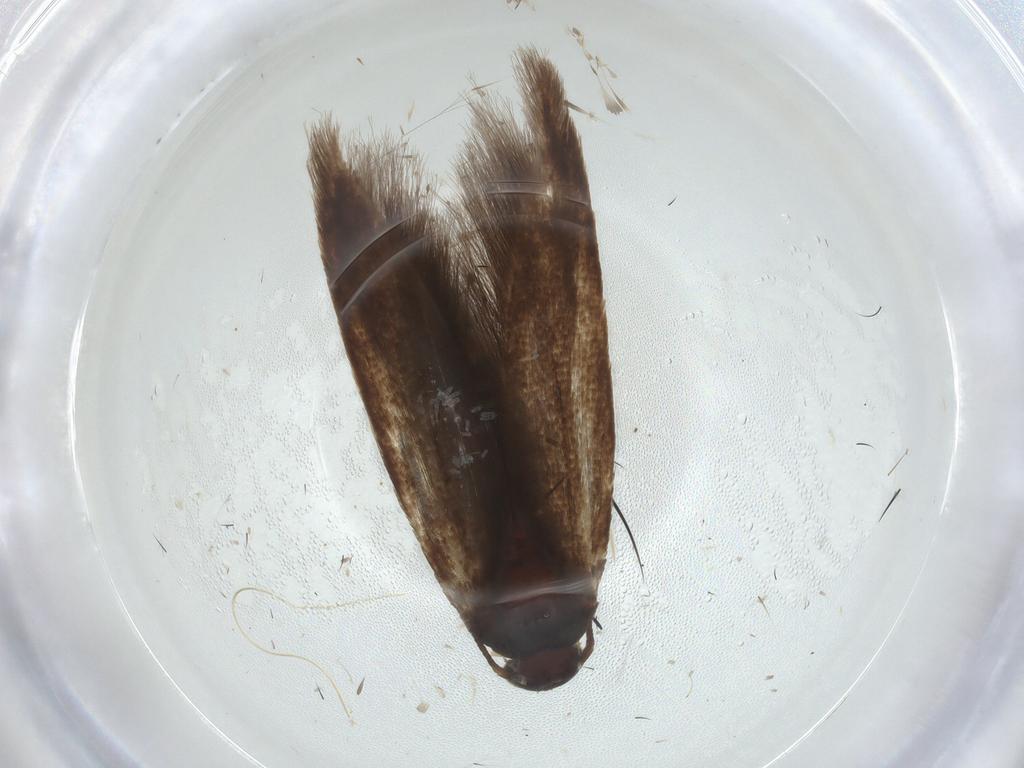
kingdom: Animalia
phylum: Arthropoda
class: Insecta
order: Lepidoptera
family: Scythrididae
